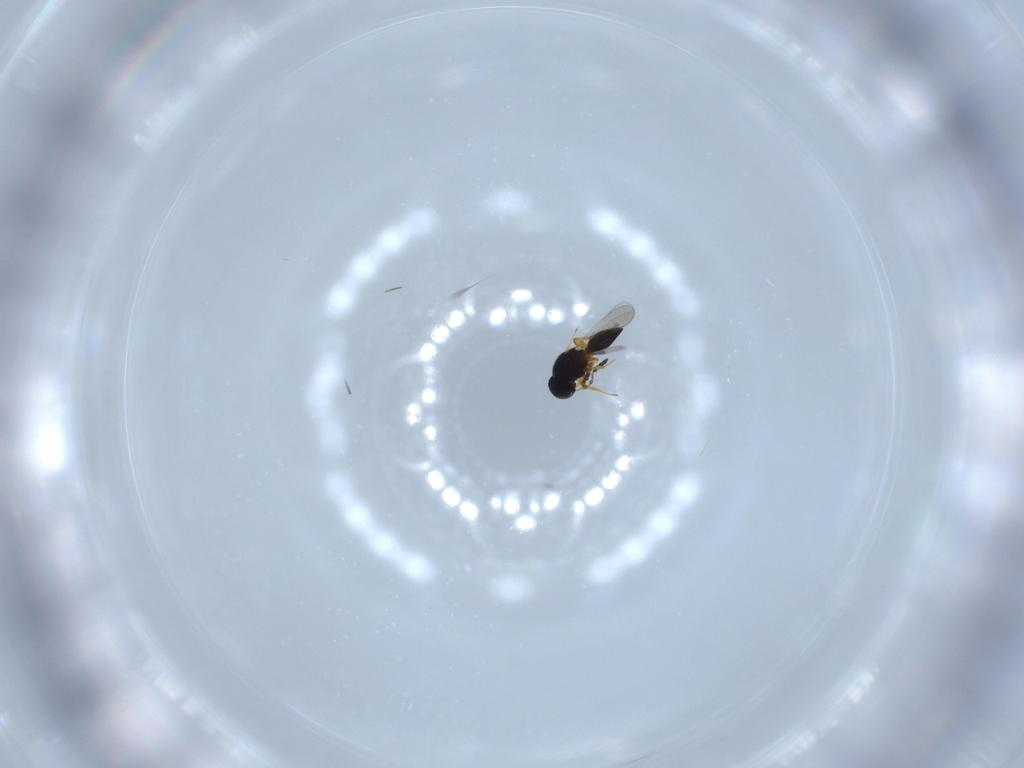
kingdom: Animalia
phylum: Arthropoda
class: Insecta
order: Hymenoptera
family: Platygastridae
